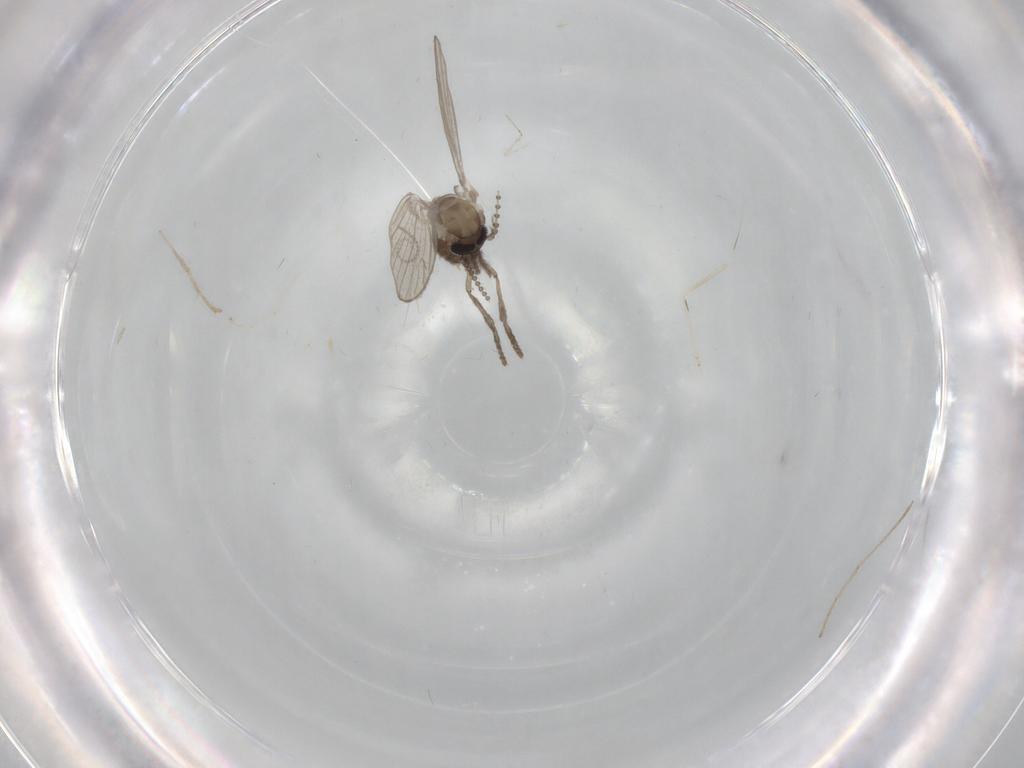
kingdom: Animalia
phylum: Arthropoda
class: Insecta
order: Diptera
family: Psychodidae
